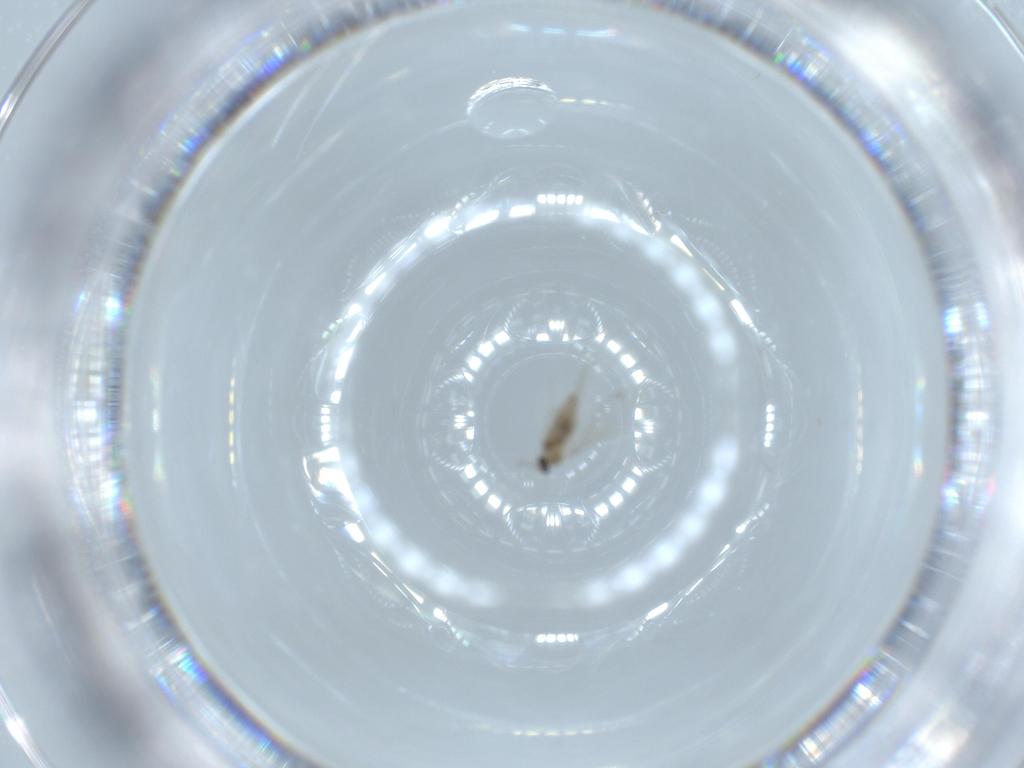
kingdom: Animalia
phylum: Arthropoda
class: Insecta
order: Diptera
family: Cecidomyiidae
